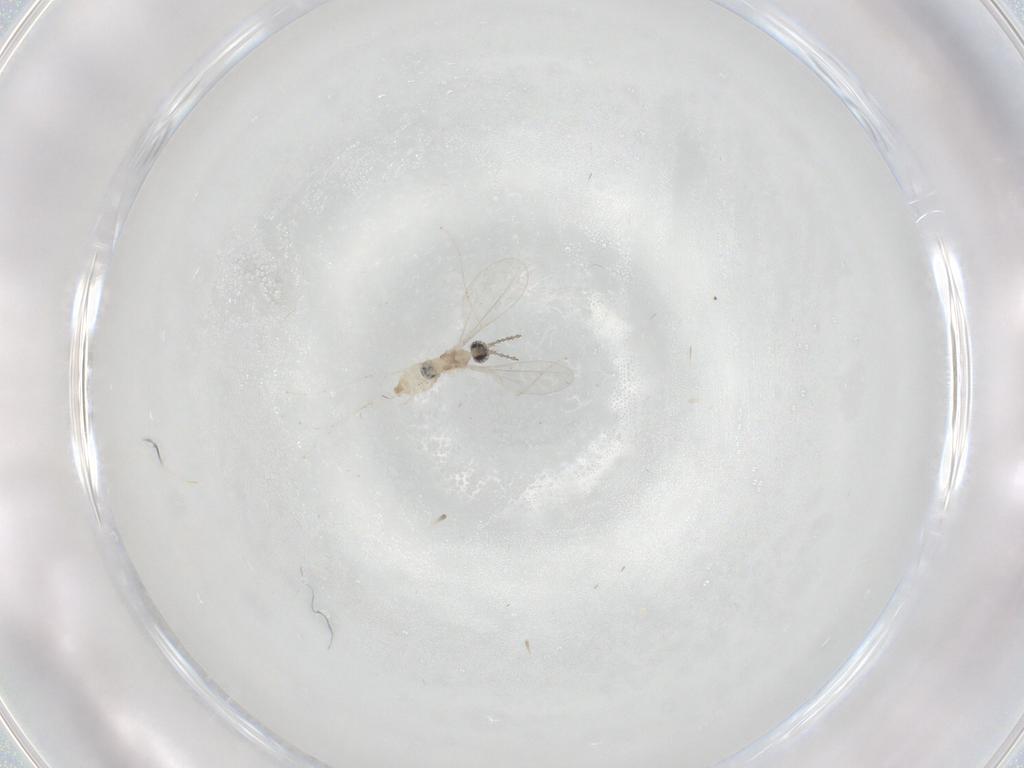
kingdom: Animalia
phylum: Arthropoda
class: Insecta
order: Diptera
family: Cecidomyiidae
